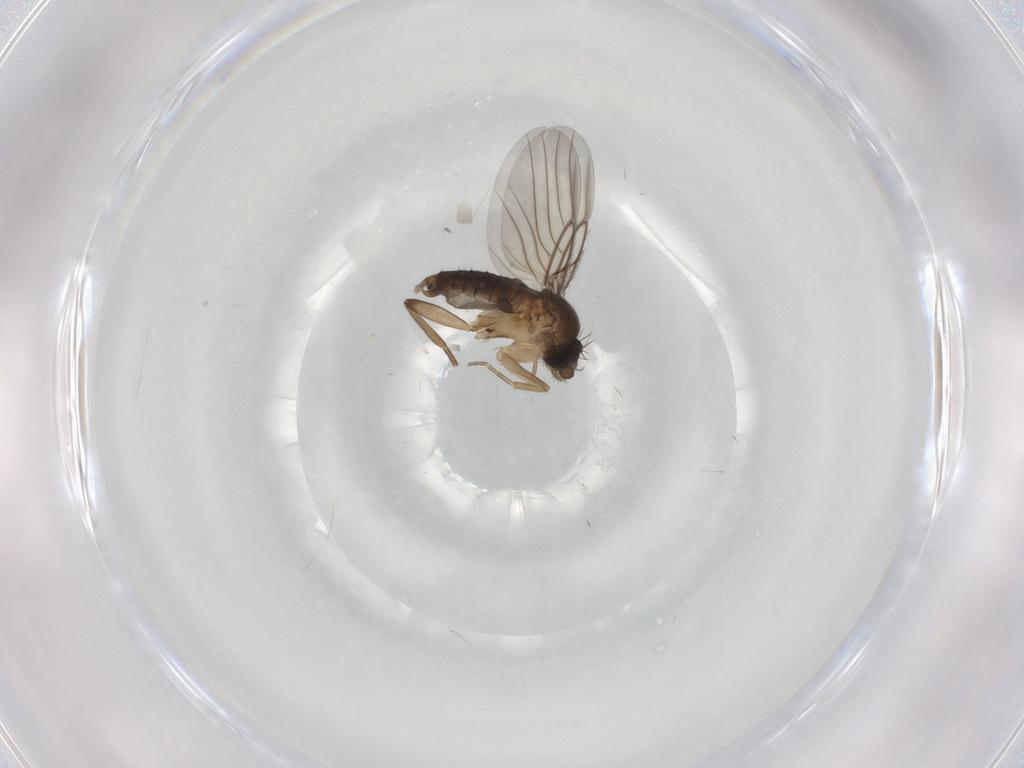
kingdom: Animalia
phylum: Arthropoda
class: Insecta
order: Diptera
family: Phoridae
